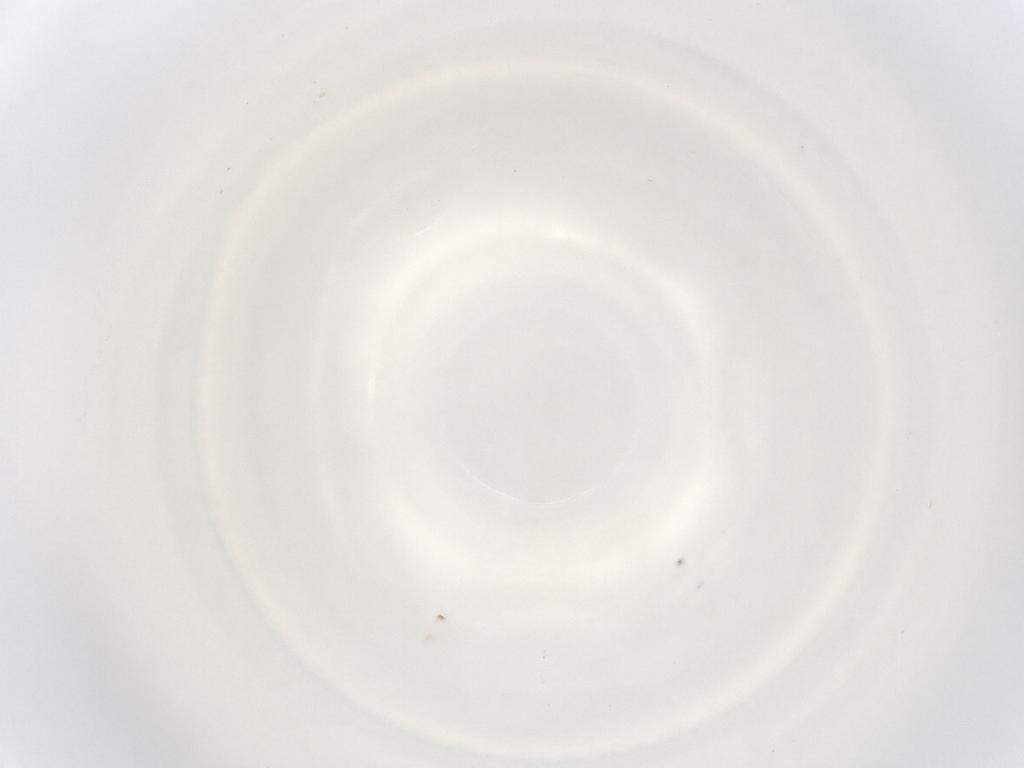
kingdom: Animalia
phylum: Arthropoda
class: Insecta
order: Diptera
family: Sciaridae
